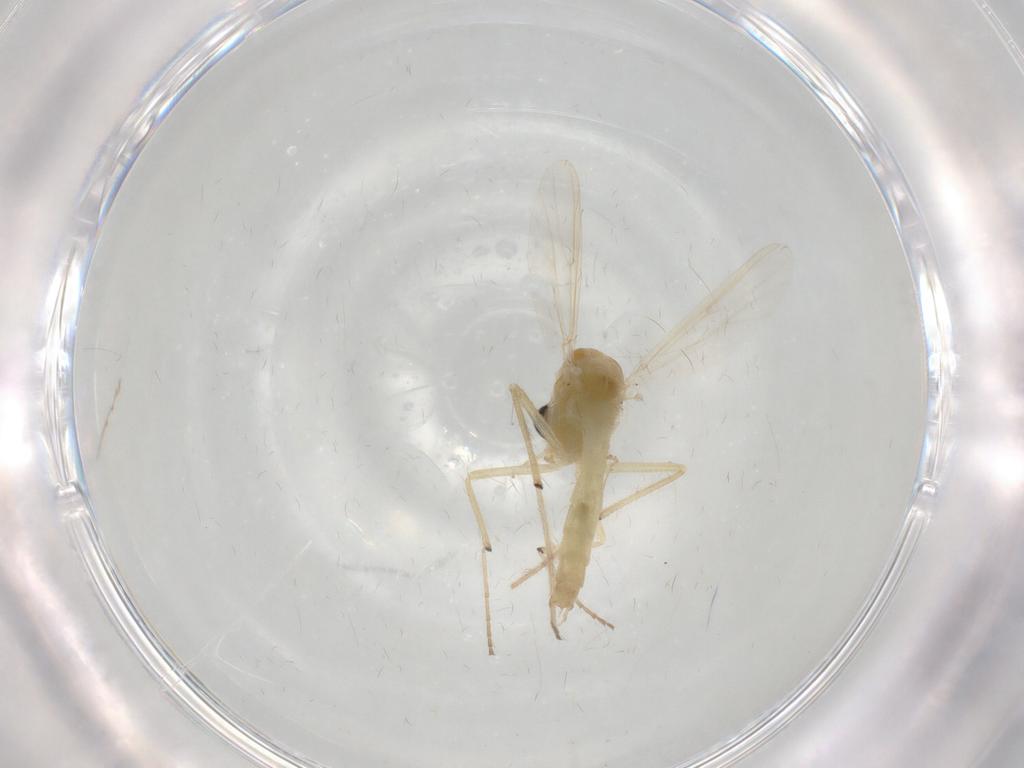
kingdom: Animalia
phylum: Arthropoda
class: Insecta
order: Diptera
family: Chironomidae
